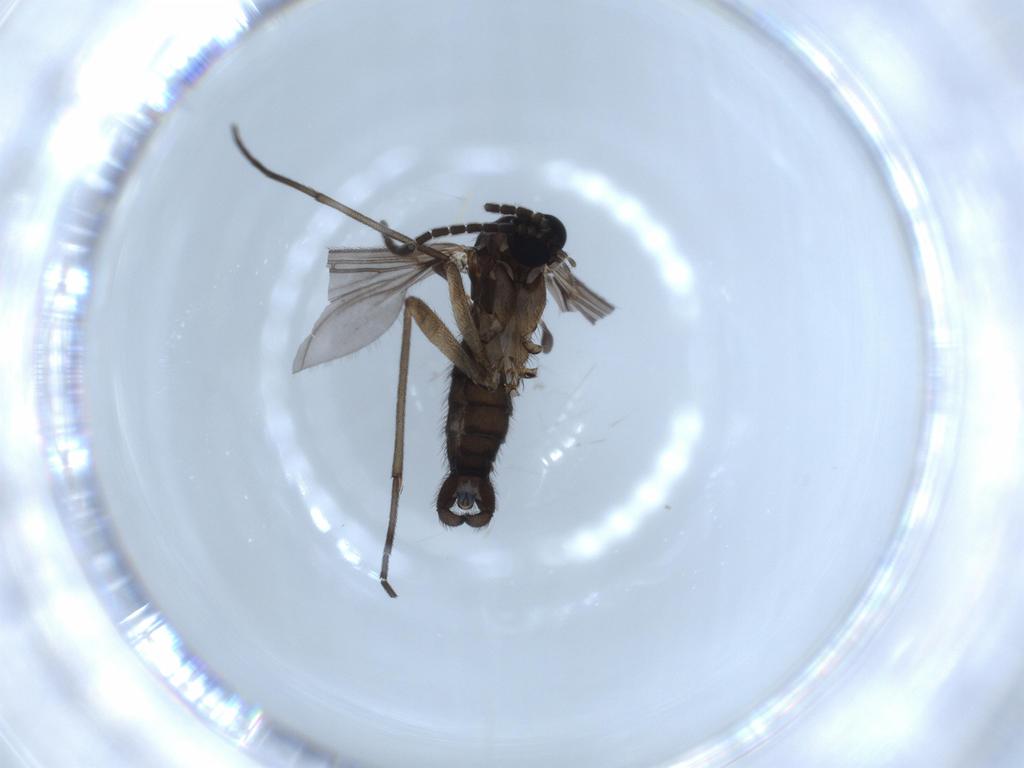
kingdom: Animalia
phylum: Arthropoda
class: Insecta
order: Diptera
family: Sciaridae
